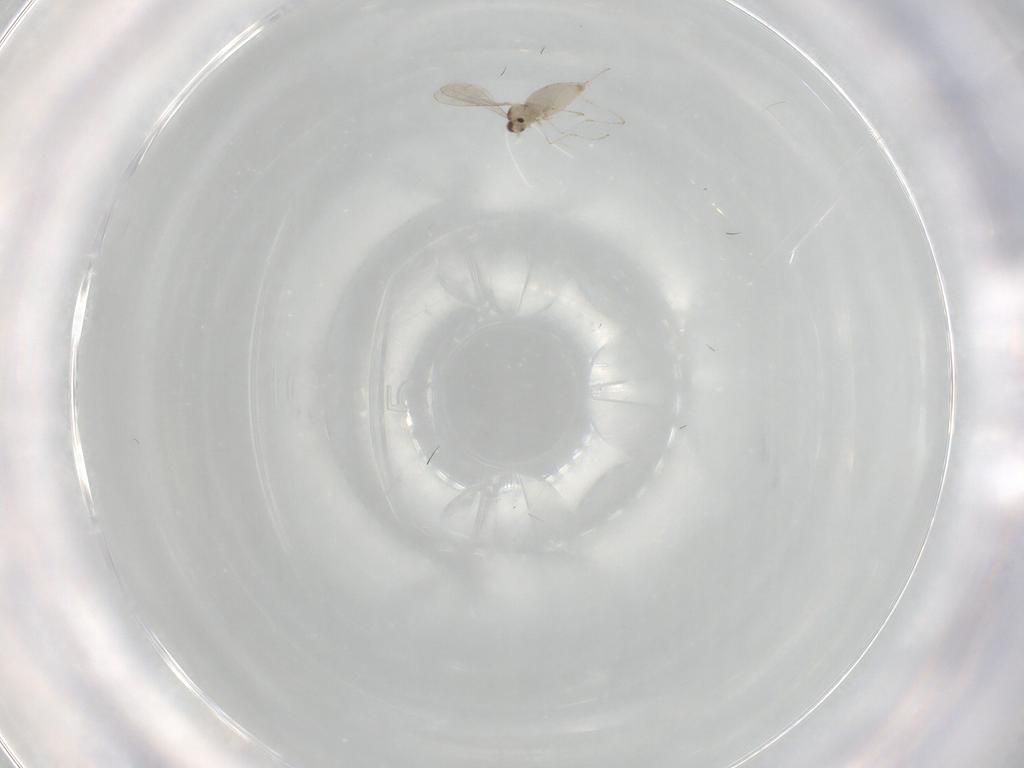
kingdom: Animalia
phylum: Arthropoda
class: Insecta
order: Diptera
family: Cecidomyiidae
